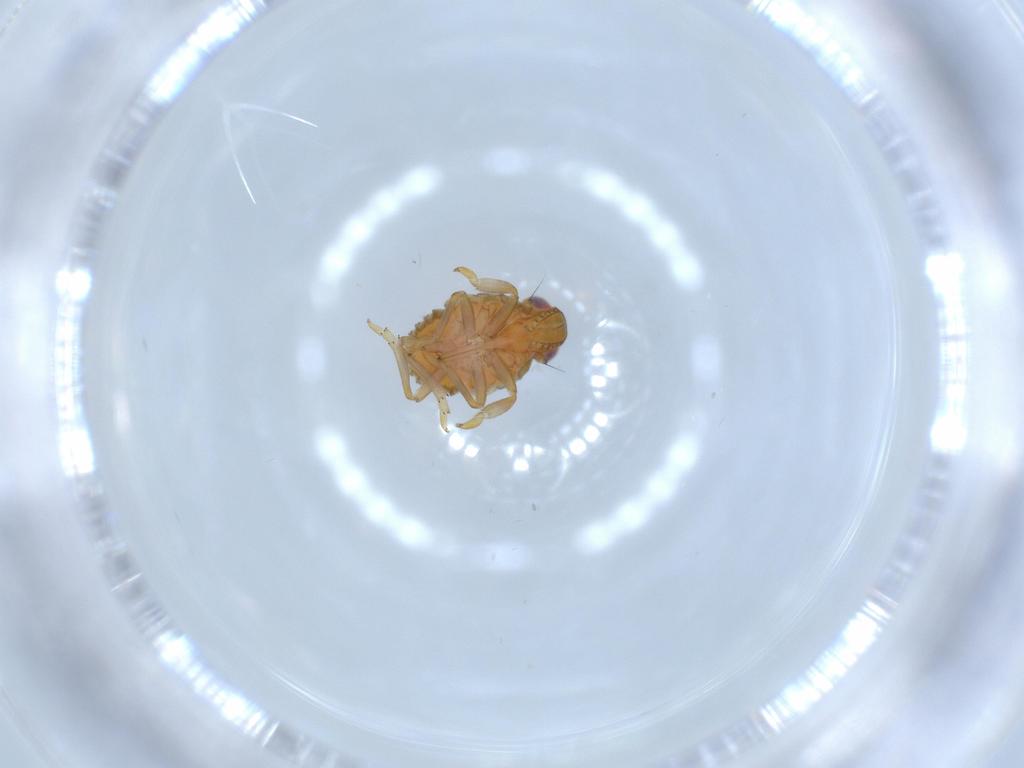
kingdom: Animalia
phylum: Arthropoda
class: Insecta
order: Hemiptera
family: Issidae
